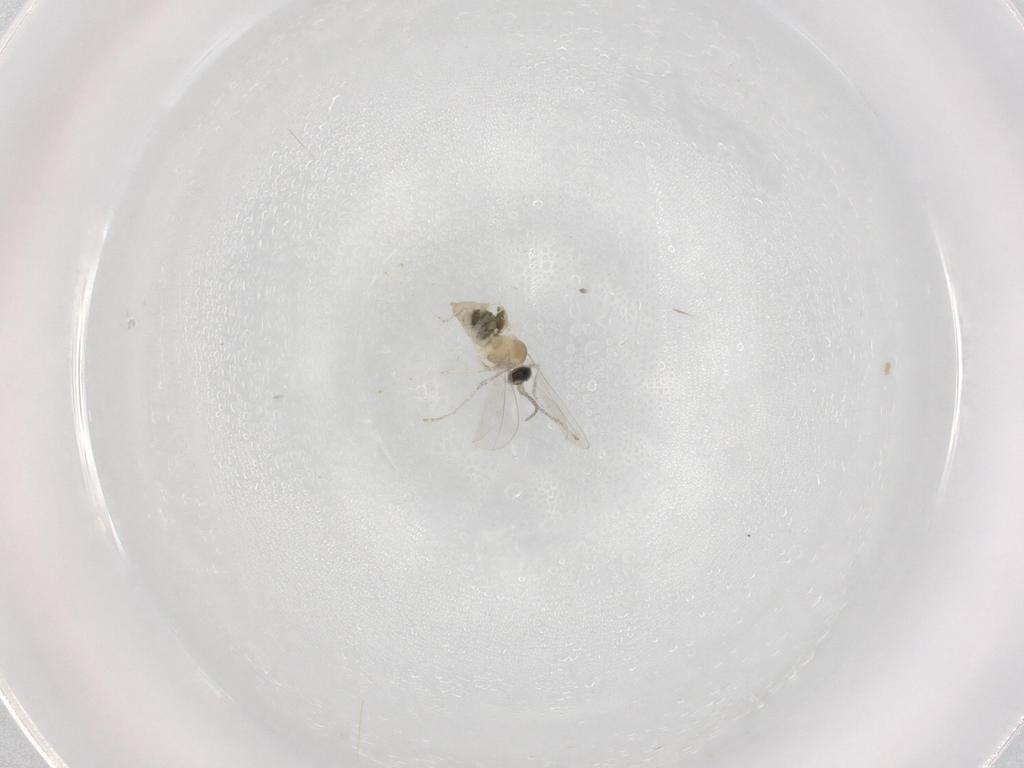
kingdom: Animalia
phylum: Arthropoda
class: Insecta
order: Diptera
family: Cecidomyiidae
